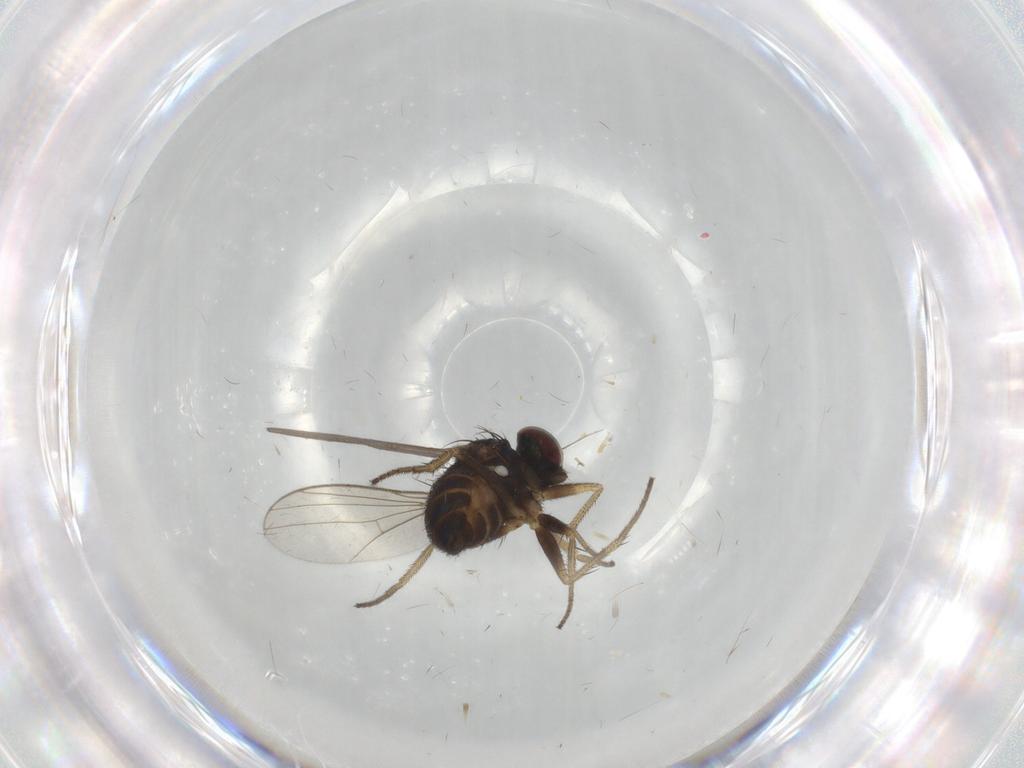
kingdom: Animalia
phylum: Arthropoda
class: Insecta
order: Diptera
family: Dolichopodidae
